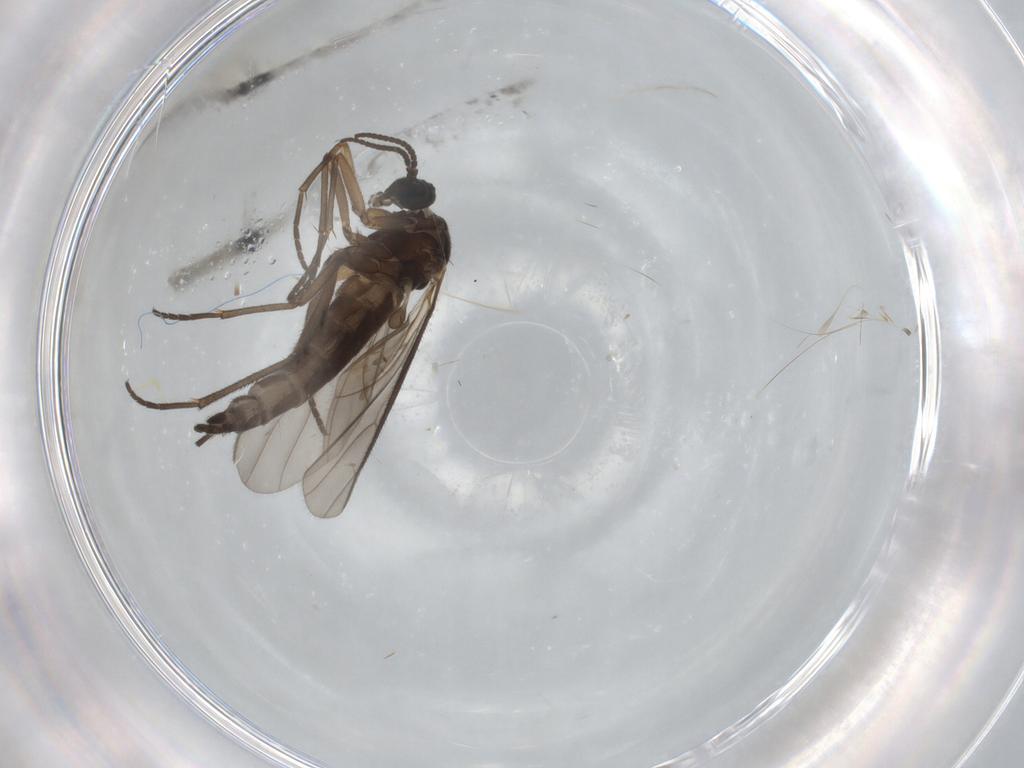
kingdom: Animalia
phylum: Arthropoda
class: Insecta
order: Diptera
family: Sciaridae
